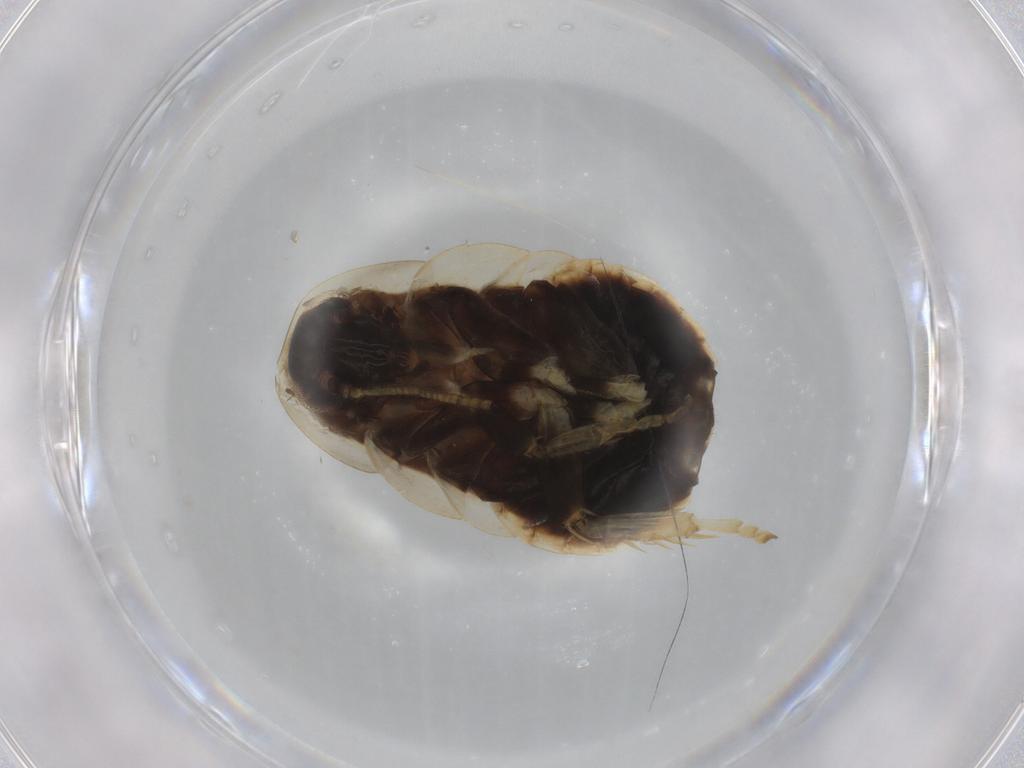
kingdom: Animalia
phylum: Arthropoda
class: Insecta
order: Blattodea
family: Ectobiidae
